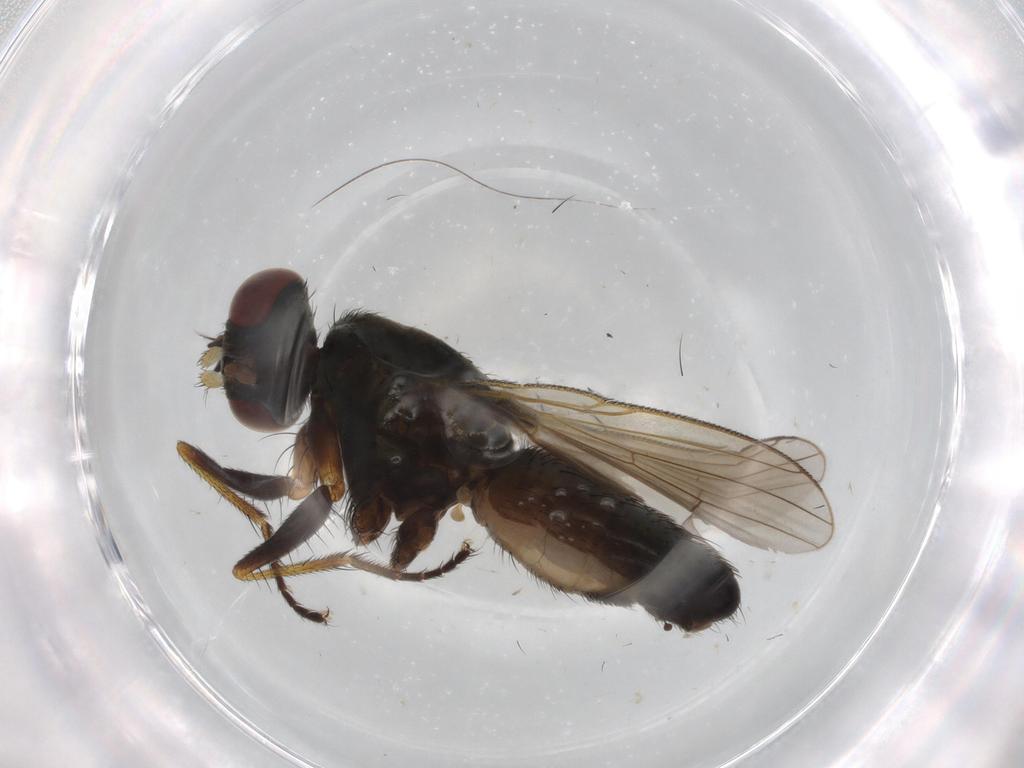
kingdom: Animalia
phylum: Arthropoda
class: Insecta
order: Diptera
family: Muscidae
